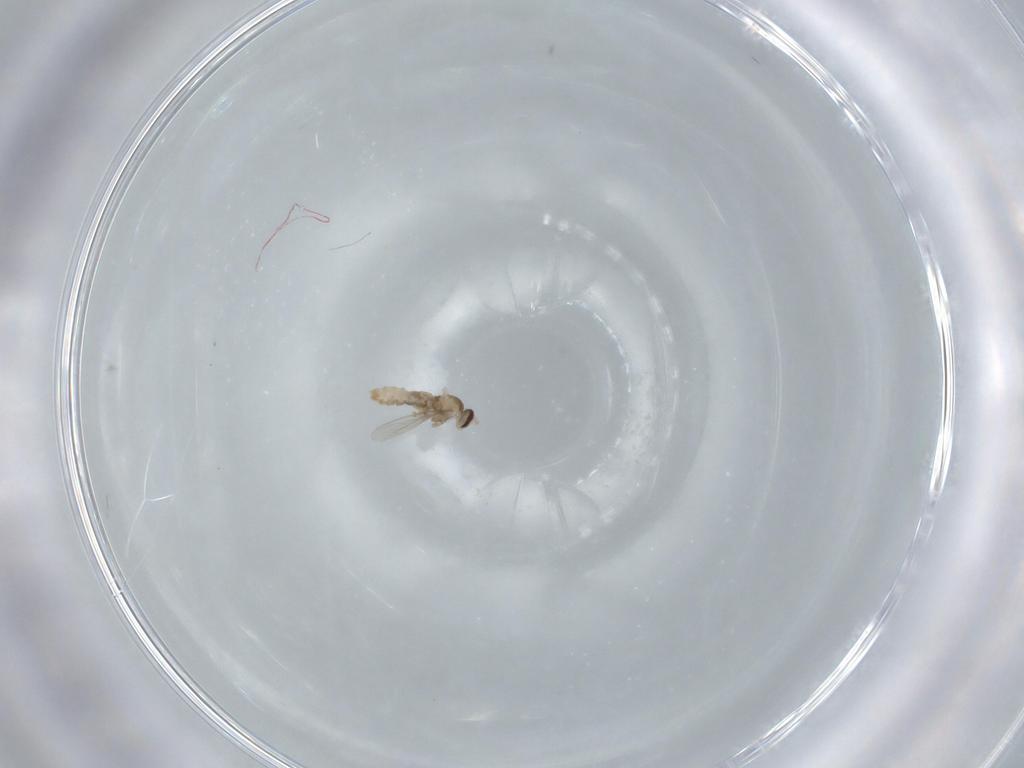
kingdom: Animalia
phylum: Arthropoda
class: Insecta
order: Diptera
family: Cecidomyiidae
